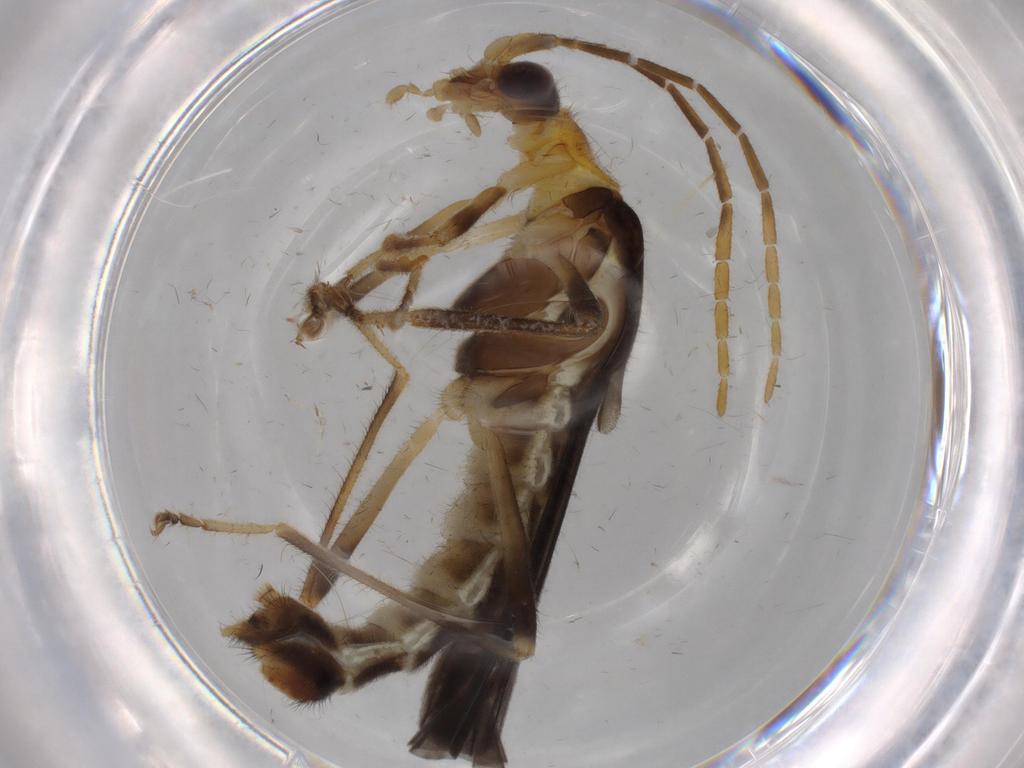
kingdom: Animalia
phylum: Arthropoda
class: Insecta
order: Coleoptera
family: Cantharidae
